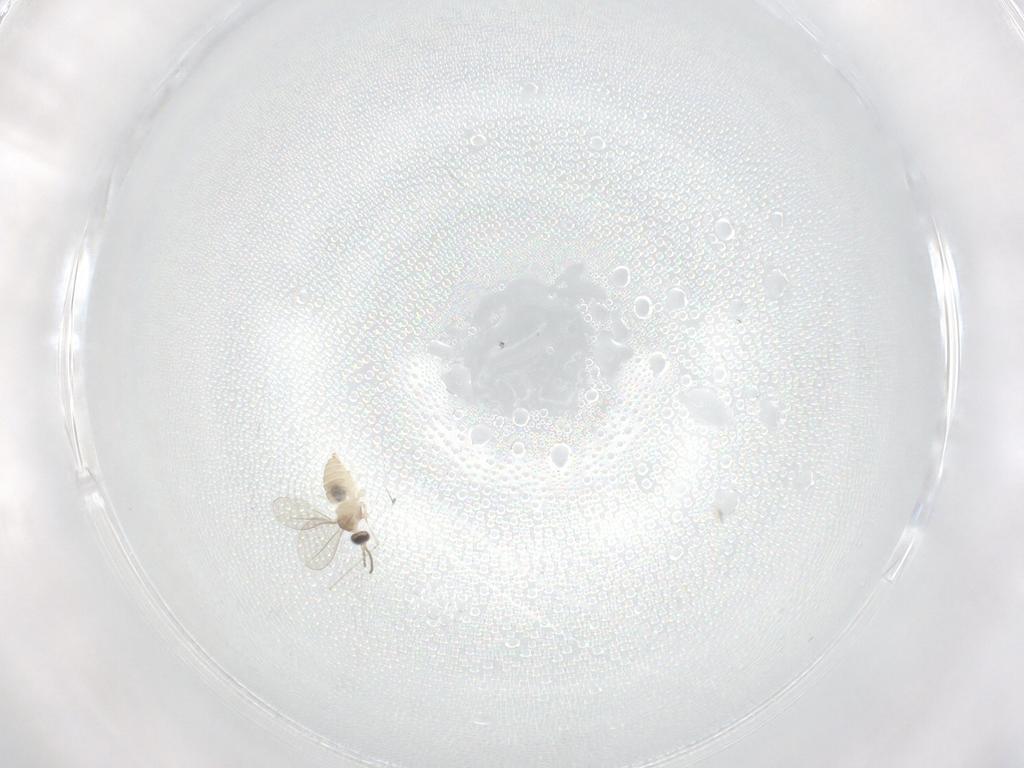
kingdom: Animalia
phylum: Arthropoda
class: Insecta
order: Diptera
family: Cecidomyiidae
